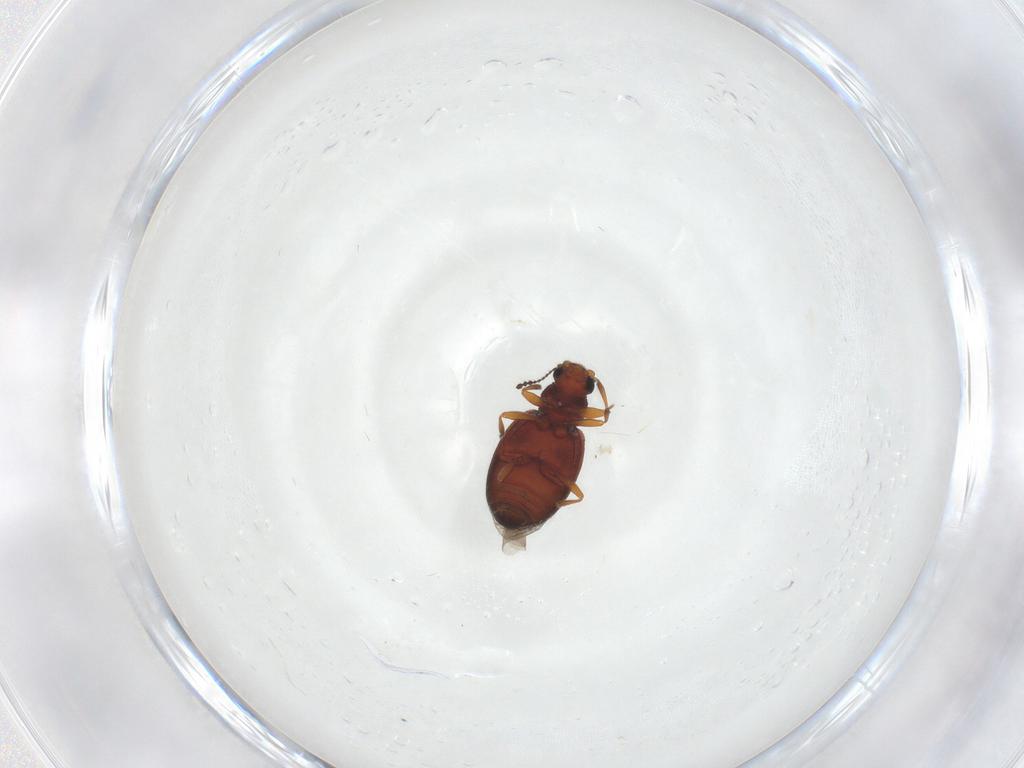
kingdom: Animalia
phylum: Arthropoda
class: Insecta
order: Coleoptera
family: Latridiidae
